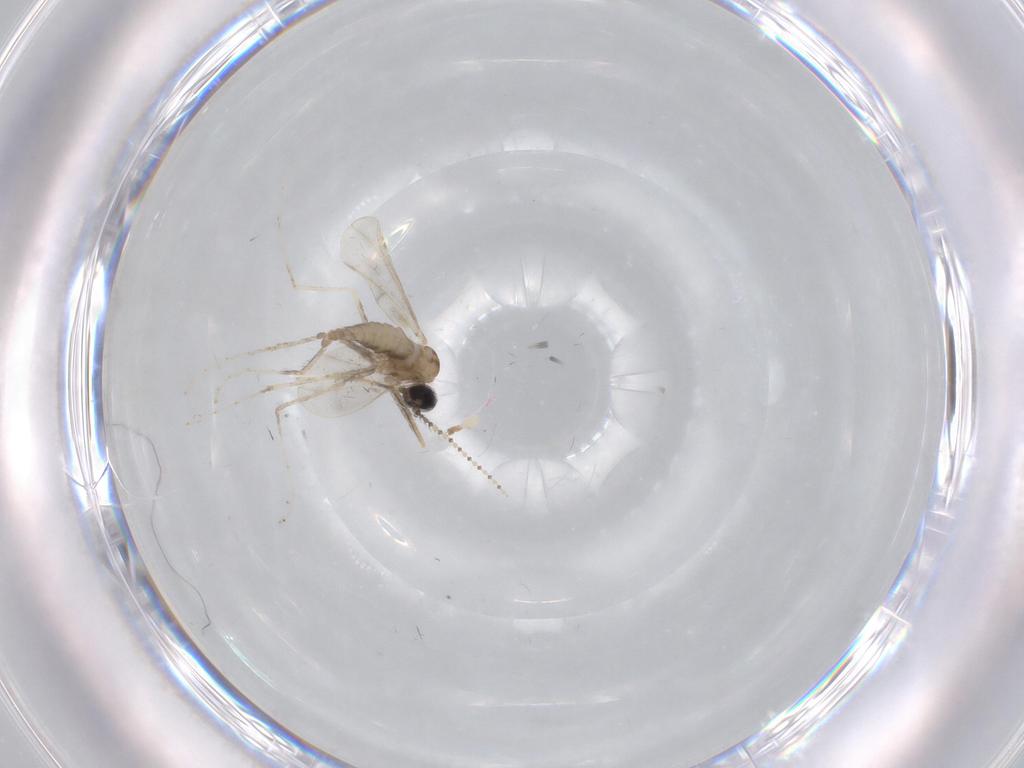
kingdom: Animalia
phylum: Arthropoda
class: Insecta
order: Diptera
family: Cecidomyiidae
